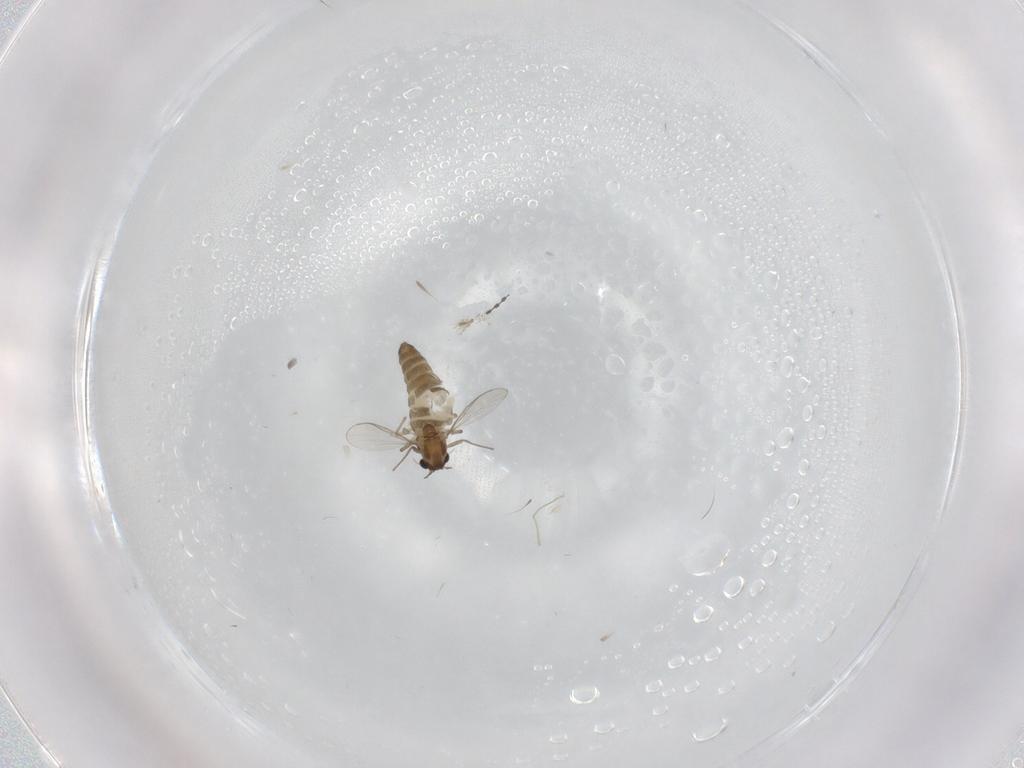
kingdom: Animalia
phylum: Arthropoda
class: Insecta
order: Diptera
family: Chironomidae
